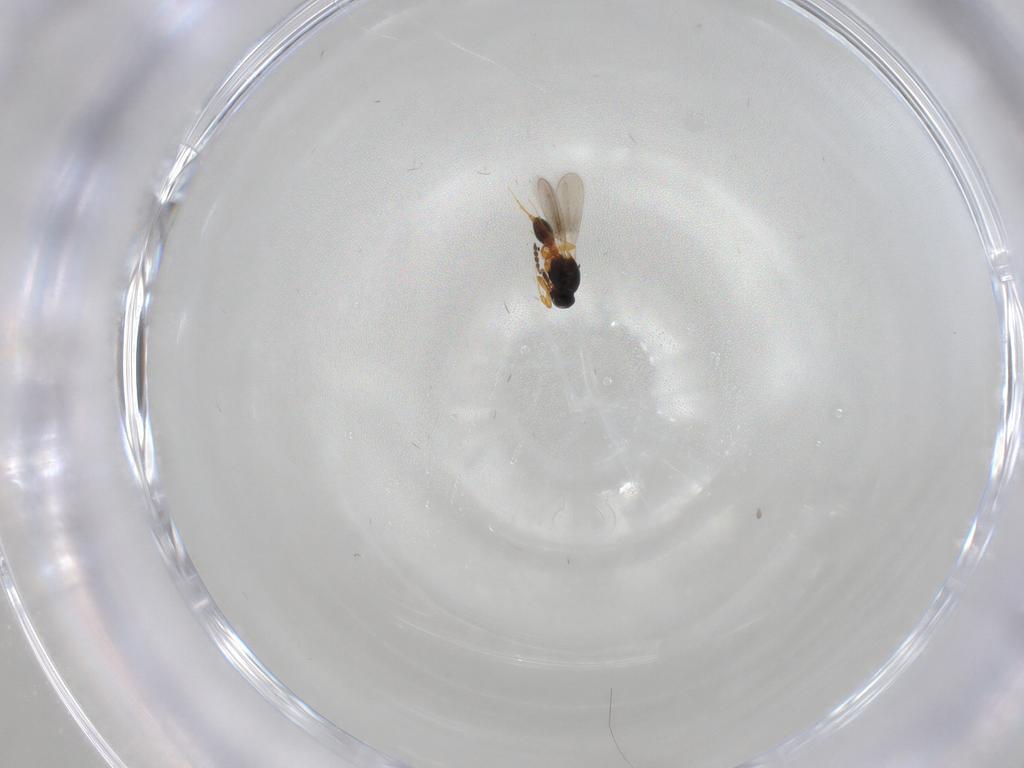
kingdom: Animalia
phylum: Arthropoda
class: Insecta
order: Hymenoptera
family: Platygastridae
